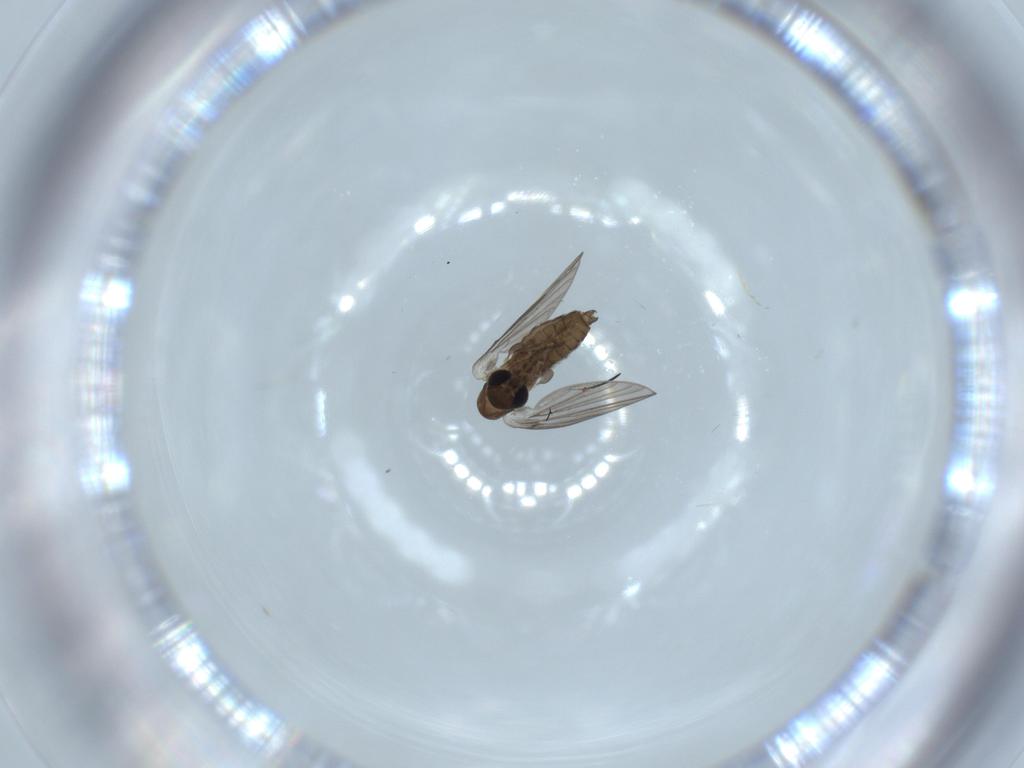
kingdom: Animalia
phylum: Arthropoda
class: Insecta
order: Diptera
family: Psychodidae
